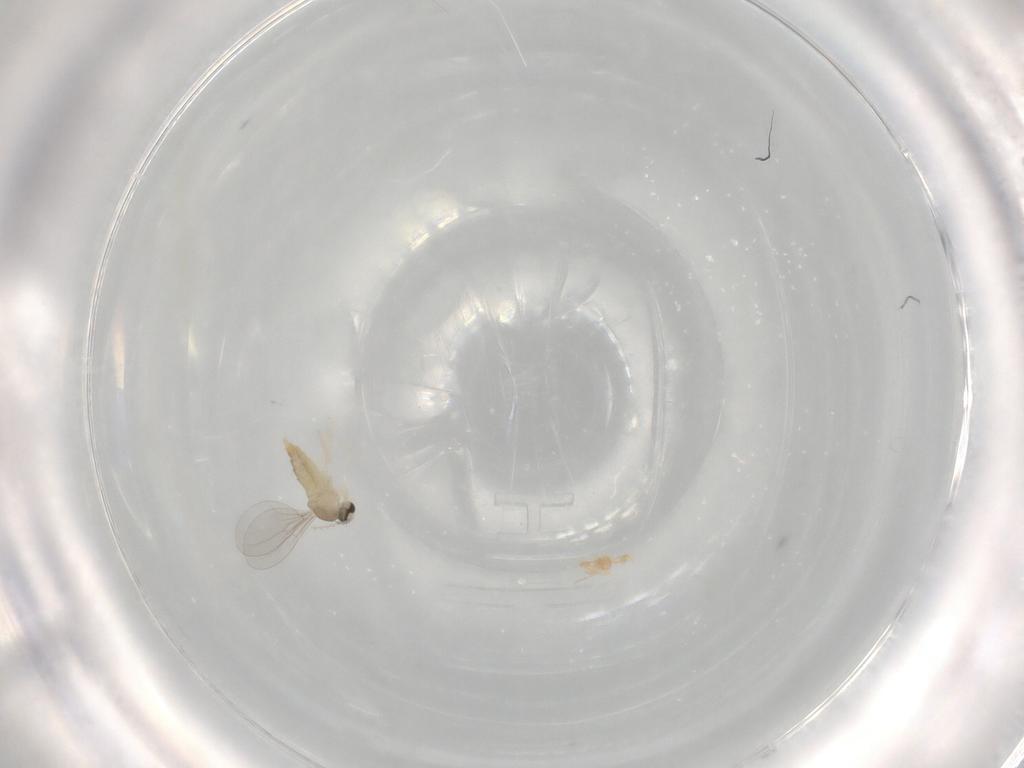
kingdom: Animalia
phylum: Arthropoda
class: Insecta
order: Diptera
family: Cecidomyiidae
